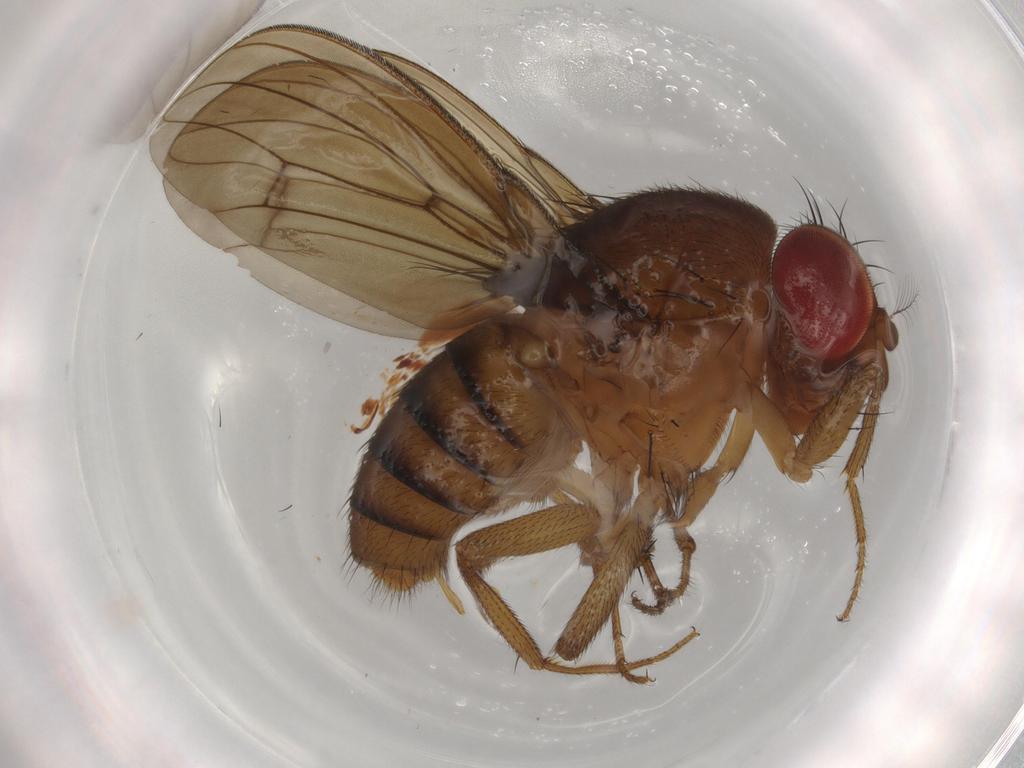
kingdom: Animalia
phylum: Arthropoda
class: Insecta
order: Diptera
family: Drosophilidae
